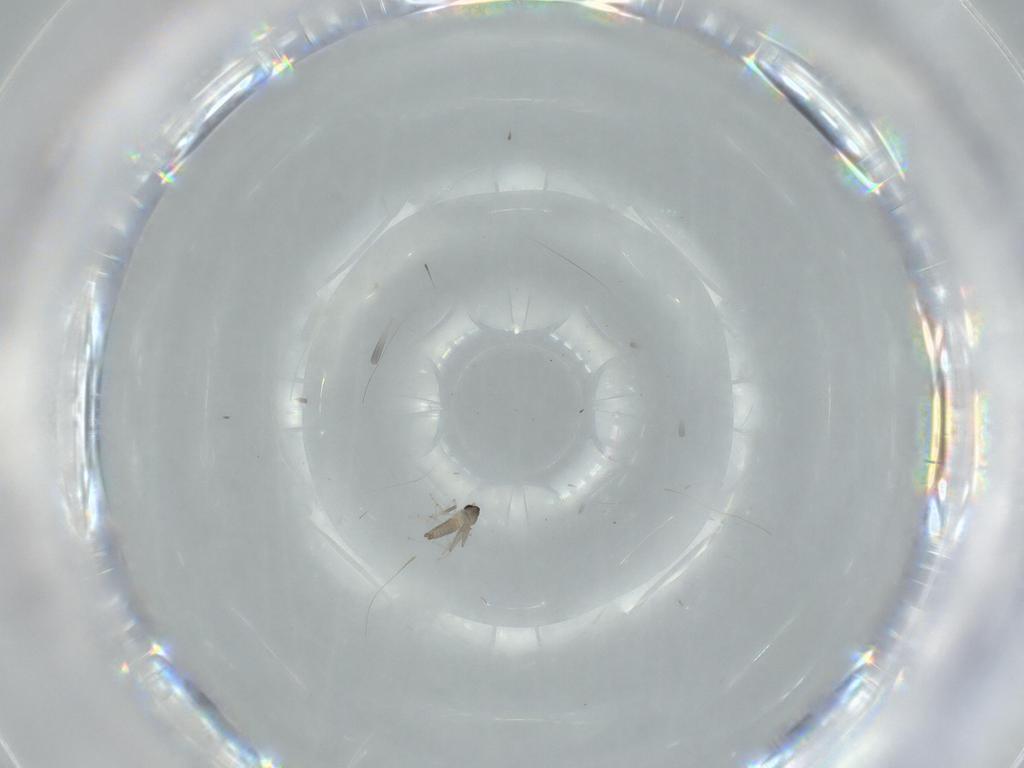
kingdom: Animalia
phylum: Arthropoda
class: Insecta
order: Diptera
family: Cecidomyiidae
